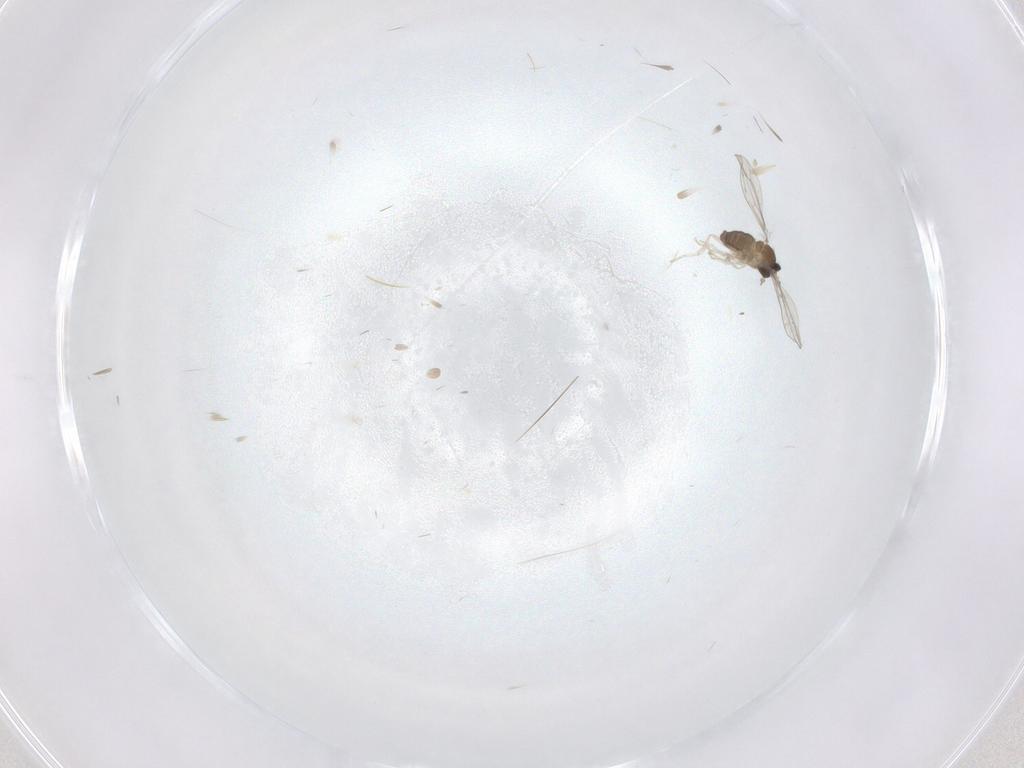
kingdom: Animalia
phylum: Arthropoda
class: Insecta
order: Diptera
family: Cecidomyiidae
